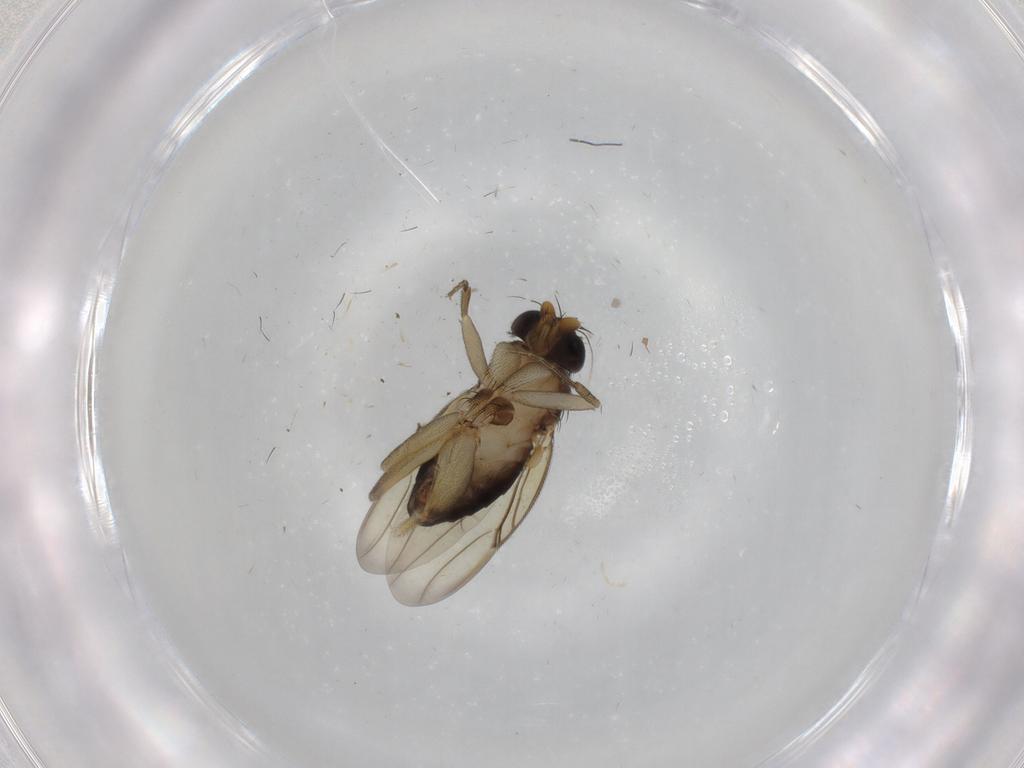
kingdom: Animalia
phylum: Arthropoda
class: Insecta
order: Diptera
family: Phoridae
